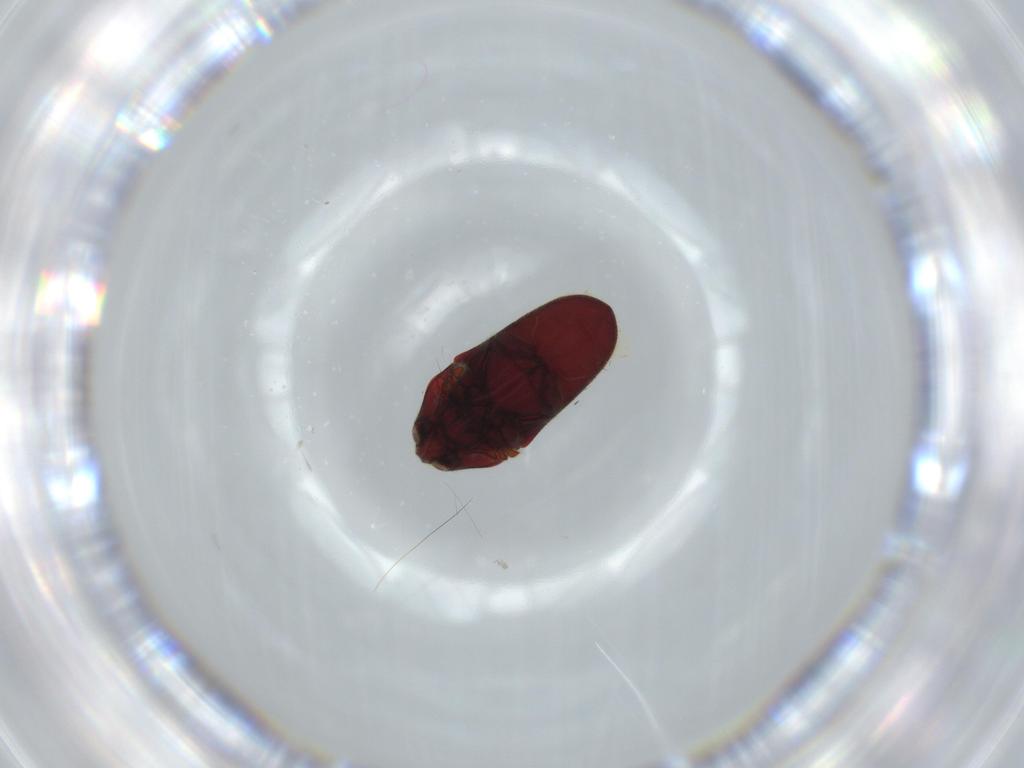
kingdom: Animalia
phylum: Arthropoda
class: Insecta
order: Coleoptera
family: Throscidae
